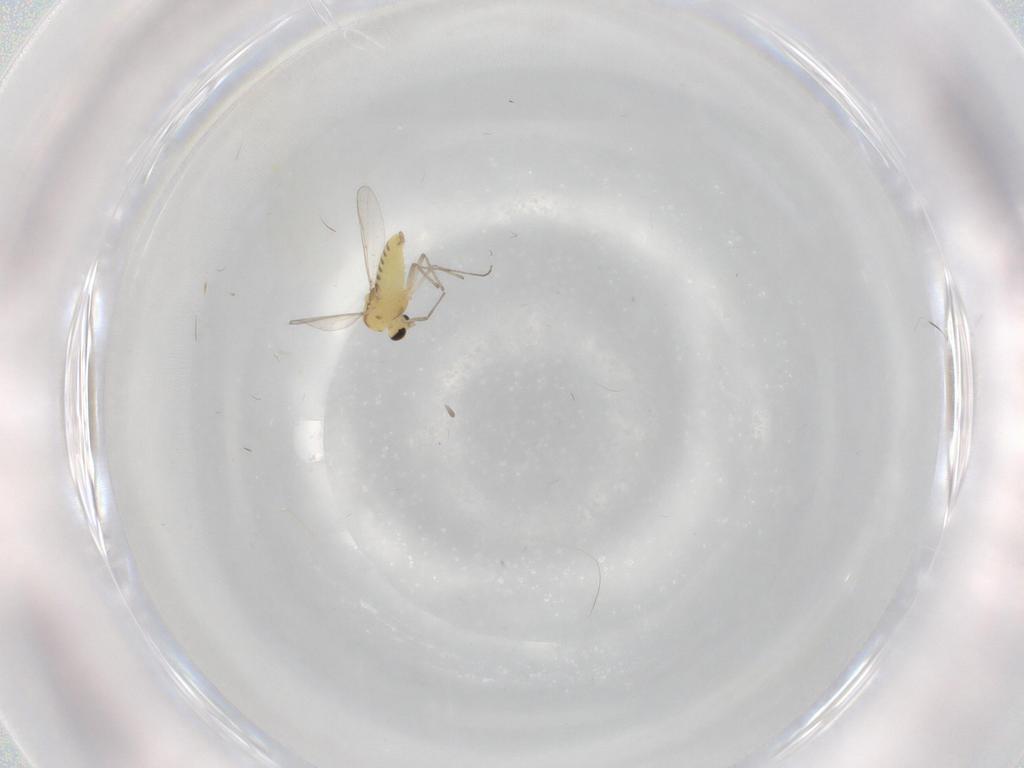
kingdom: Animalia
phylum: Arthropoda
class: Insecta
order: Diptera
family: Chironomidae
